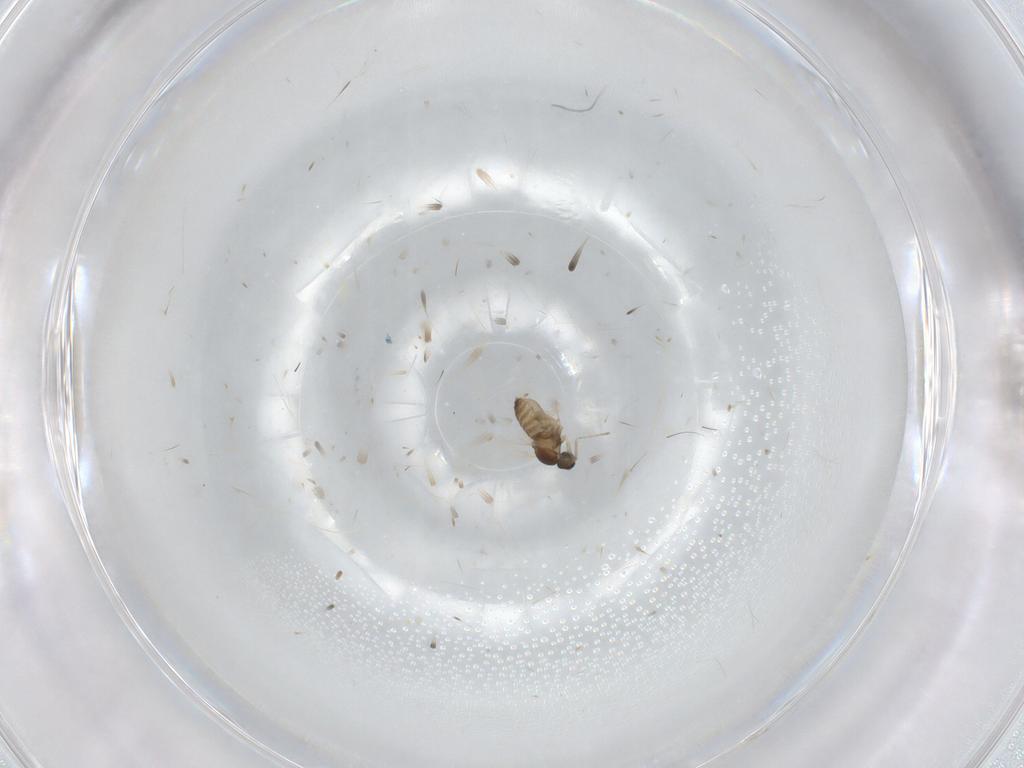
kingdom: Animalia
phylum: Arthropoda
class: Insecta
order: Diptera
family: Cecidomyiidae
